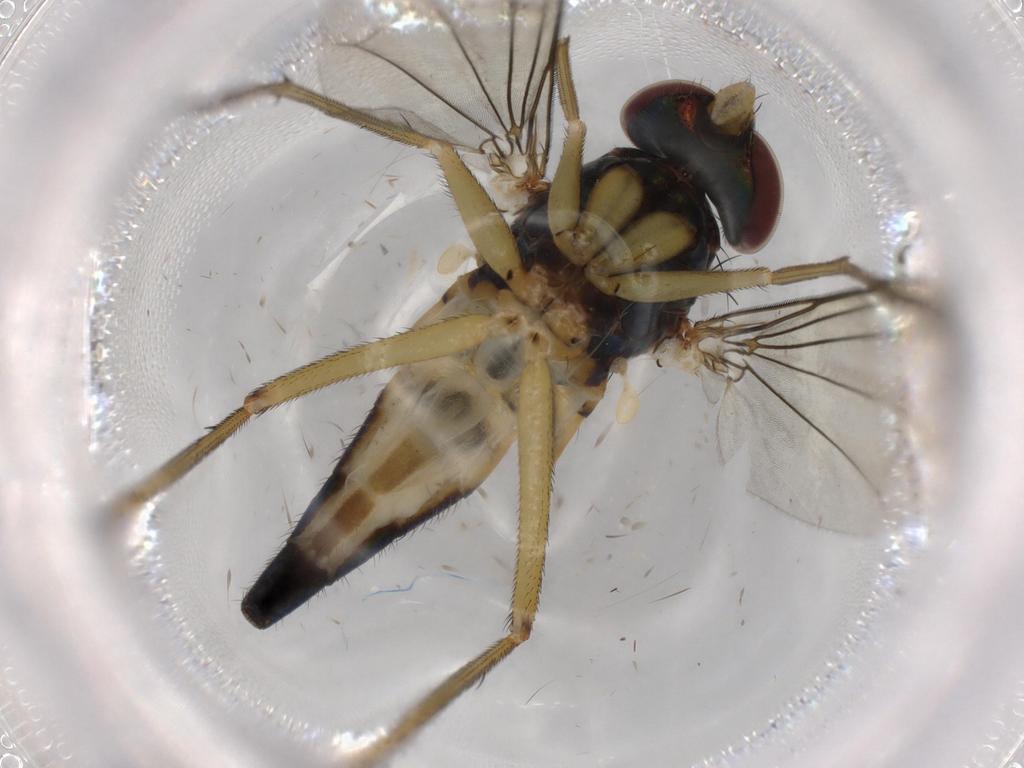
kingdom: Animalia
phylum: Arthropoda
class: Insecta
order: Diptera
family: Dolichopodidae
